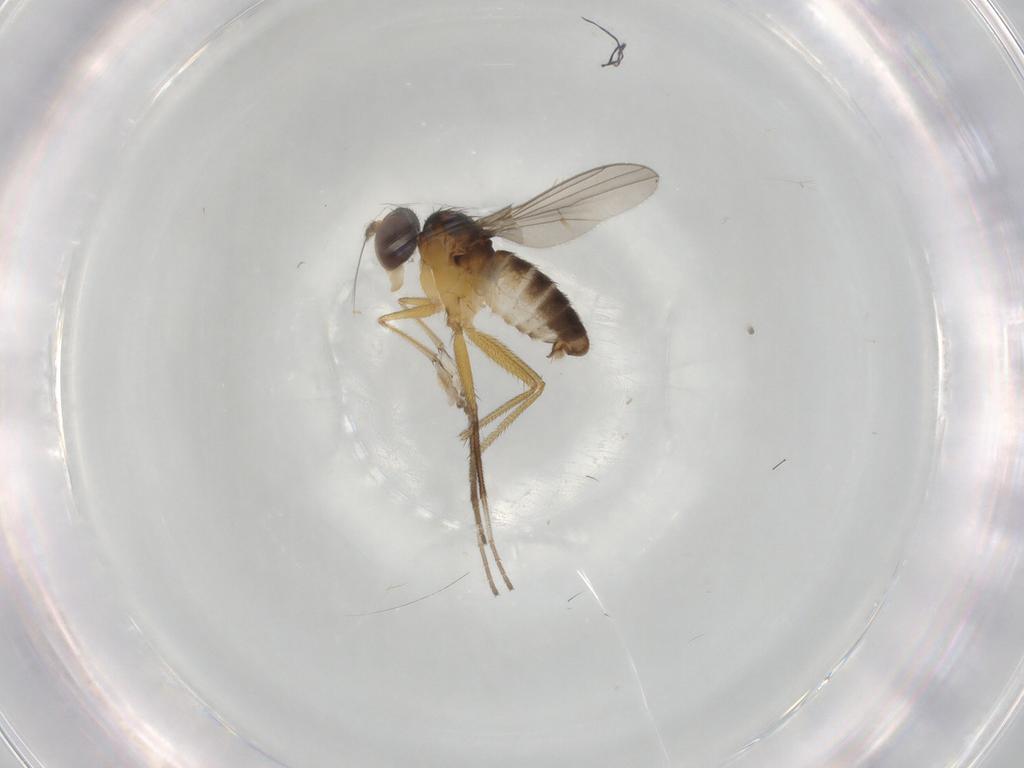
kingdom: Animalia
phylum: Arthropoda
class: Insecta
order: Diptera
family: Dolichopodidae
